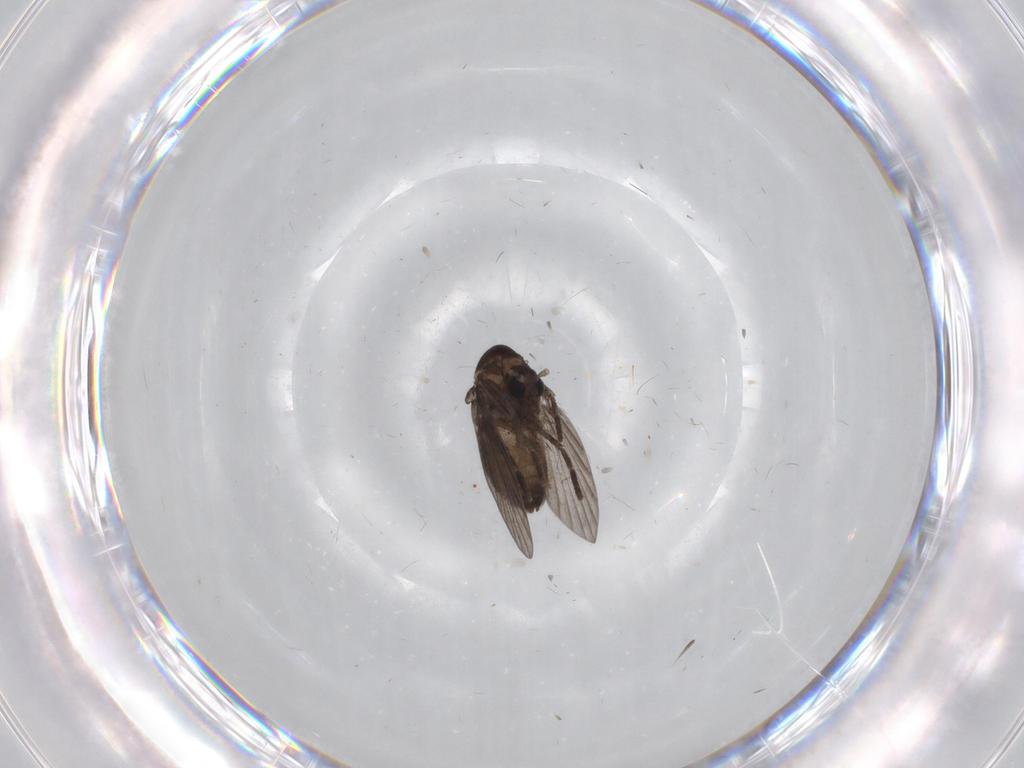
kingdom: Animalia
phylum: Arthropoda
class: Insecta
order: Diptera
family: Psychodidae
